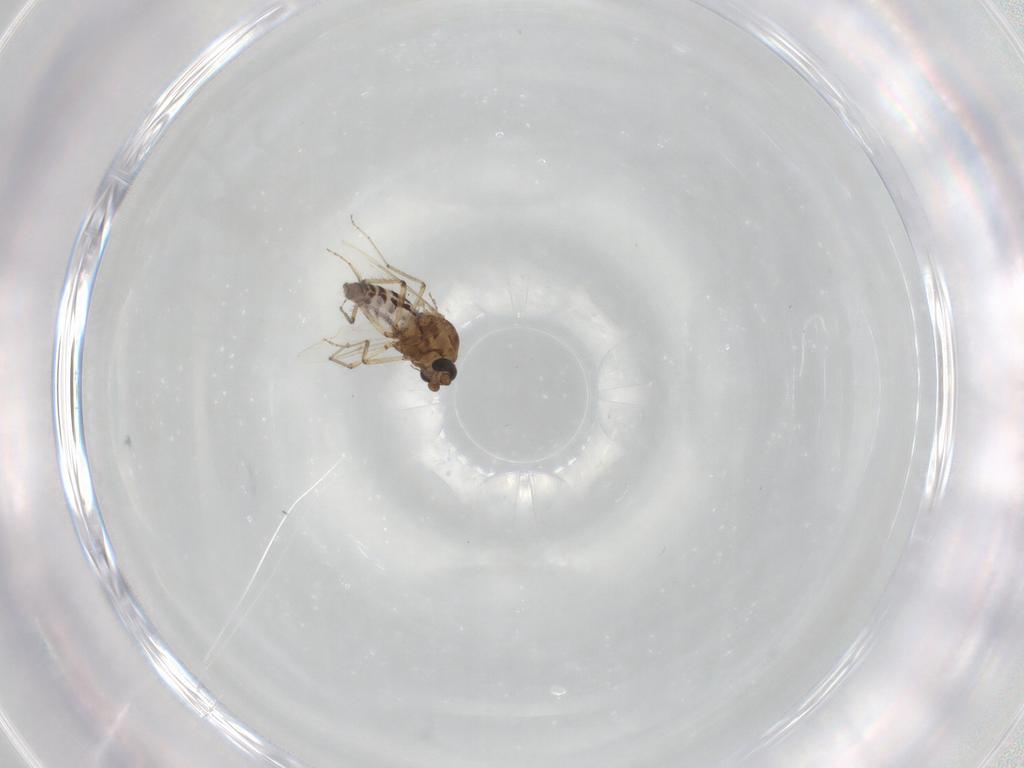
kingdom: Animalia
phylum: Arthropoda
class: Insecta
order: Diptera
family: Ceratopogonidae
